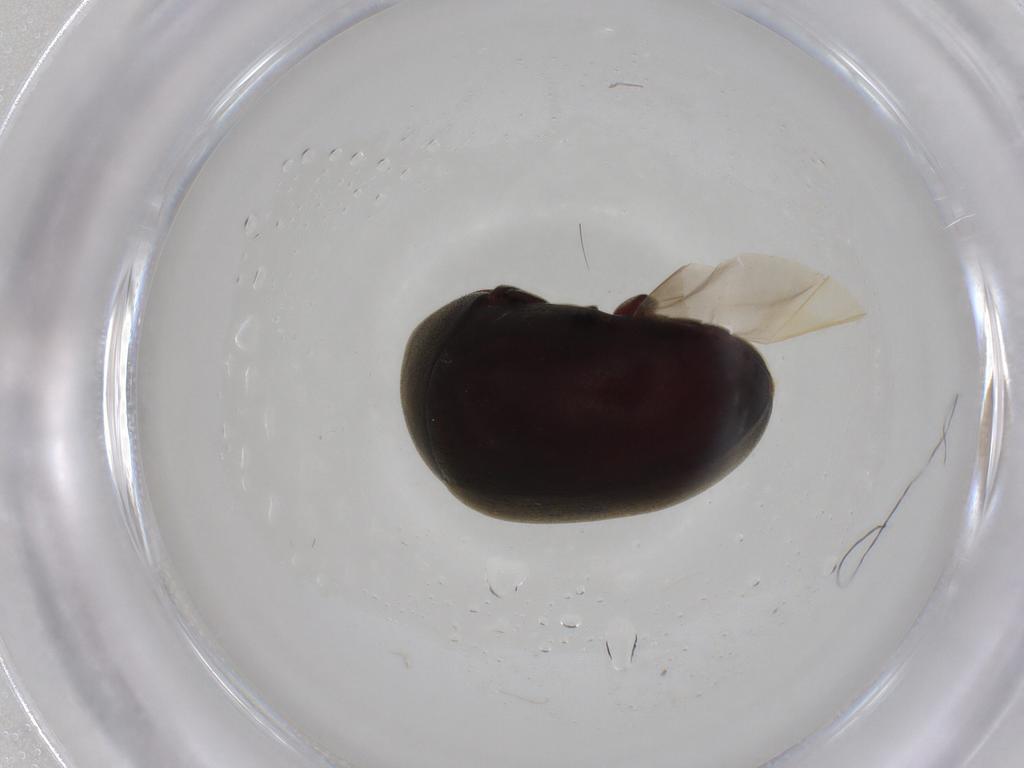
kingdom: Animalia
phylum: Arthropoda
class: Insecta
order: Coleoptera
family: Ptinidae
